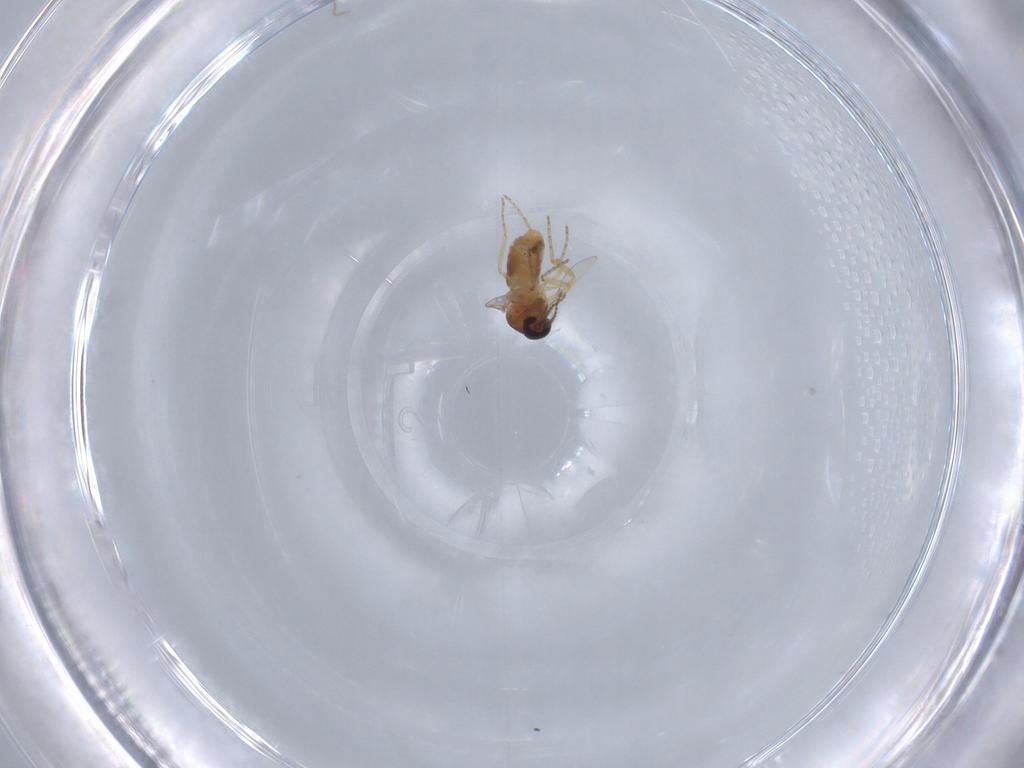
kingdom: Animalia
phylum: Arthropoda
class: Insecta
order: Diptera
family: Ceratopogonidae
